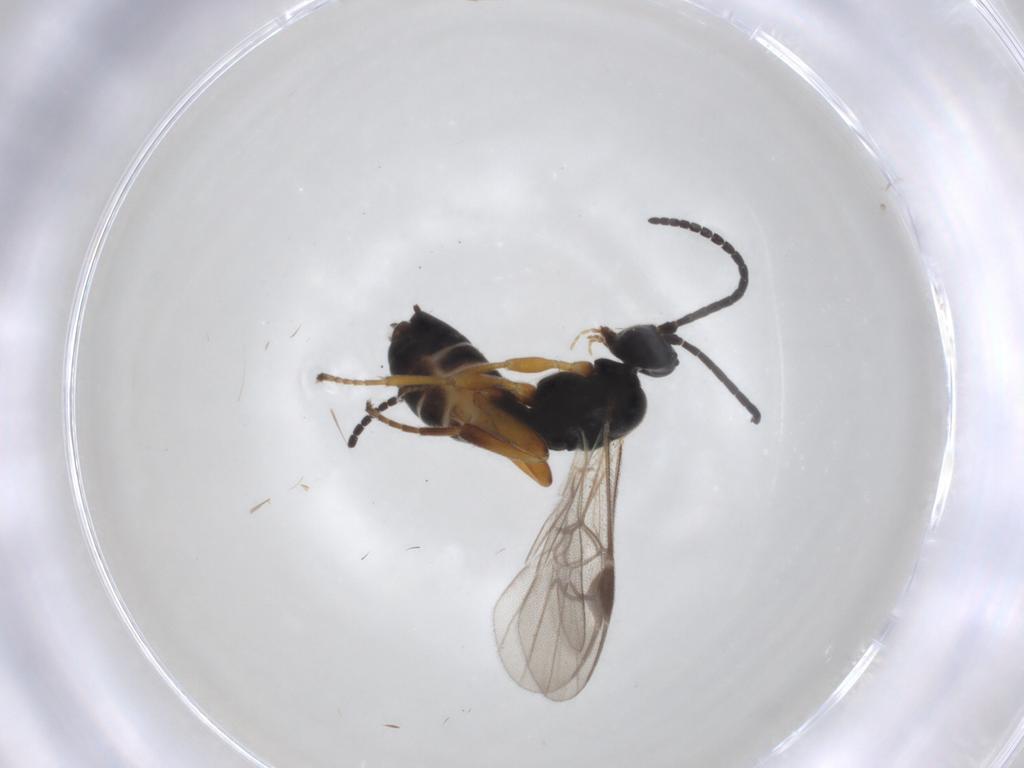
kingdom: Animalia
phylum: Arthropoda
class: Insecta
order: Hymenoptera
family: Braconidae
